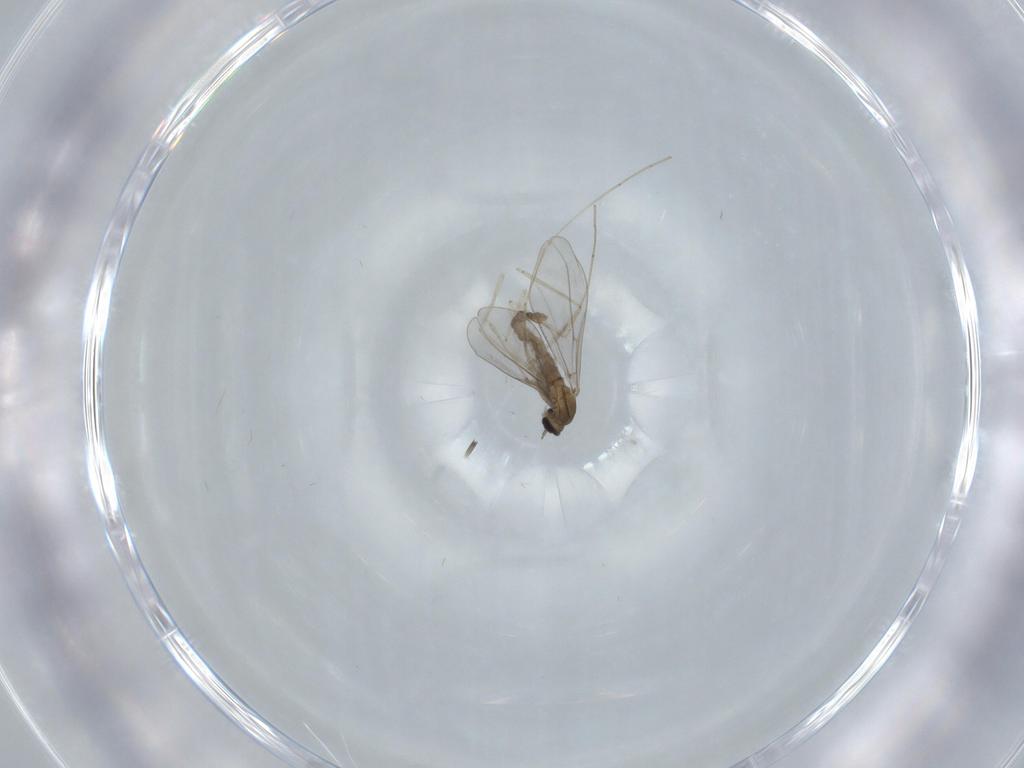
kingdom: Animalia
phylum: Arthropoda
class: Insecta
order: Diptera
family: Cecidomyiidae
